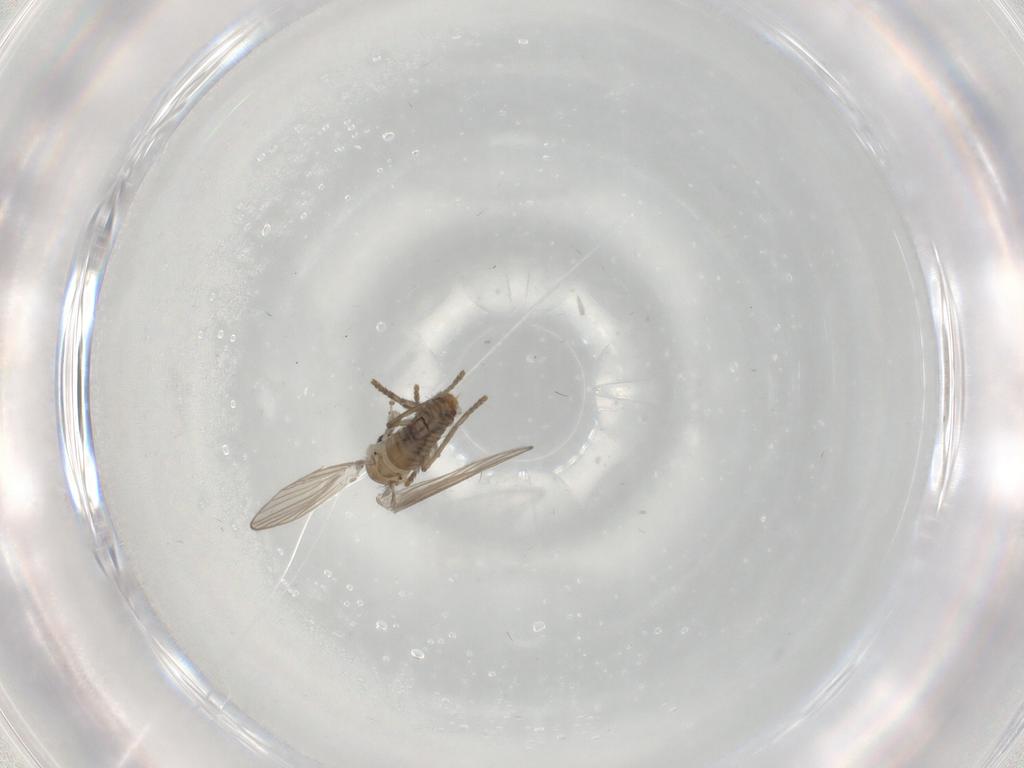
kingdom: Animalia
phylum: Arthropoda
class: Insecta
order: Diptera
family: Psychodidae
